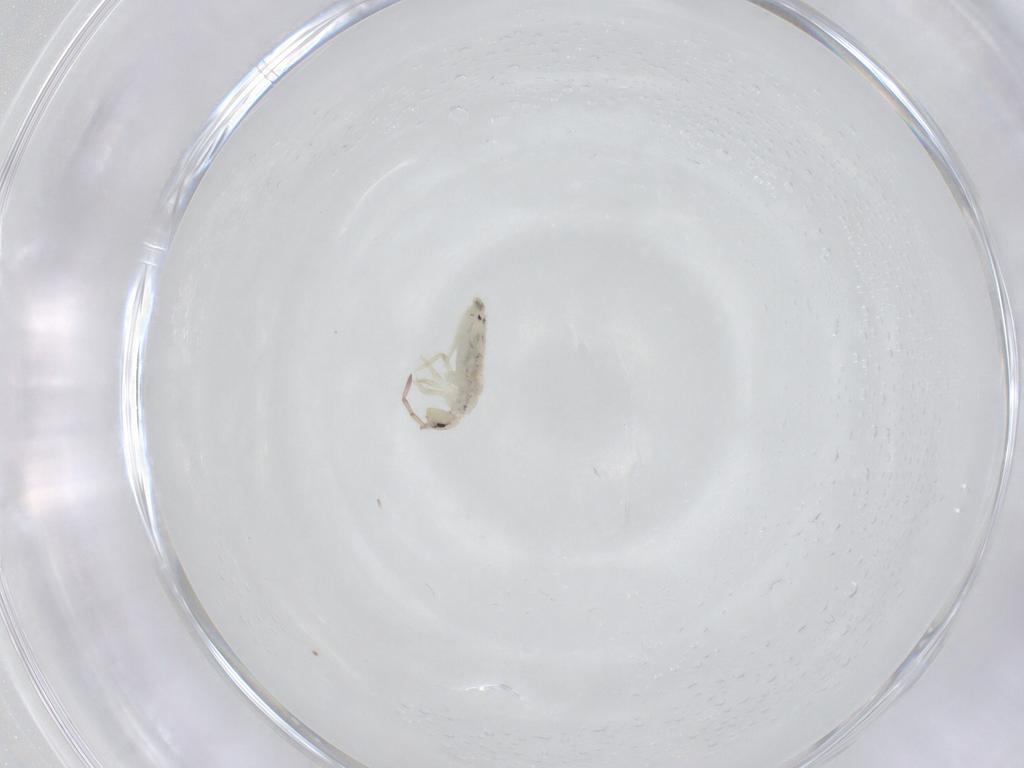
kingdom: Animalia
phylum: Arthropoda
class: Collembola
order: Entomobryomorpha
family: Entomobryidae
